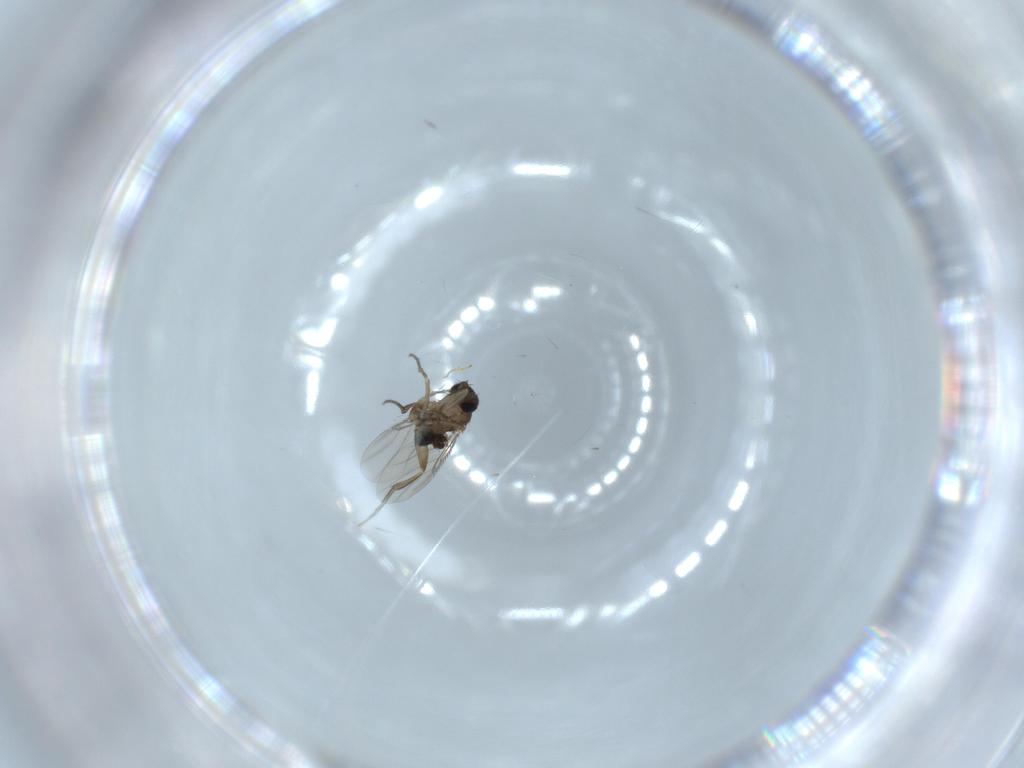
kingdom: Animalia
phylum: Arthropoda
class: Insecta
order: Diptera
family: Phoridae
